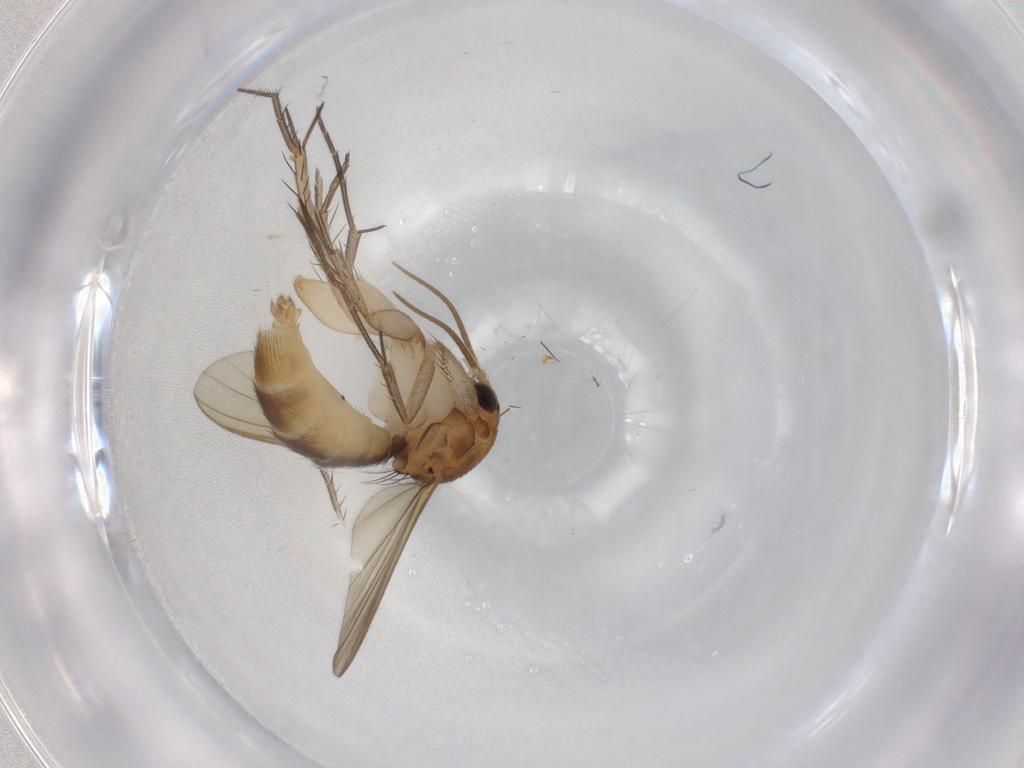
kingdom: Animalia
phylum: Arthropoda
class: Insecta
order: Diptera
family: Mycetophilidae
